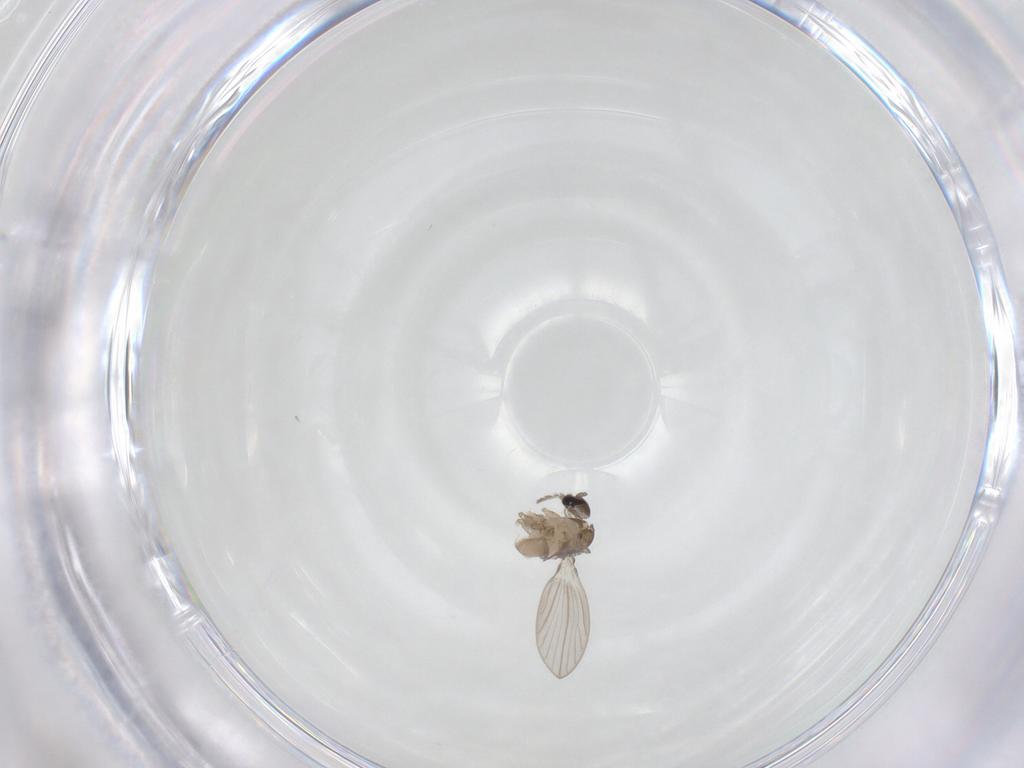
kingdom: Animalia
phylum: Arthropoda
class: Insecta
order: Diptera
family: Psychodidae
